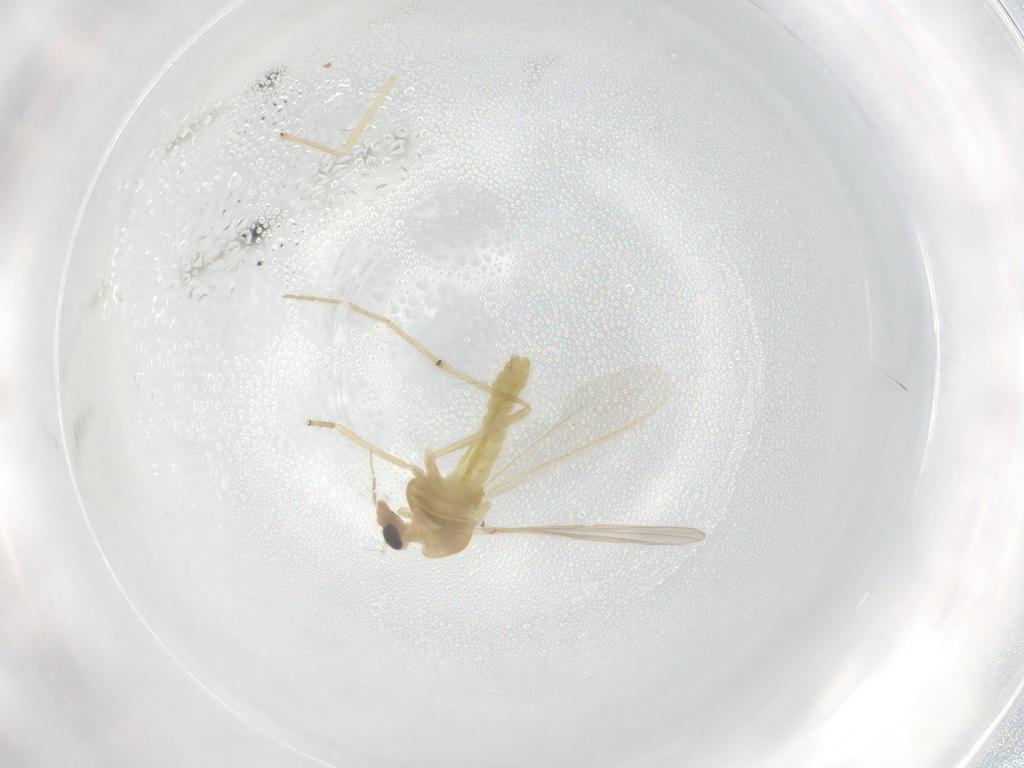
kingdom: Animalia
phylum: Arthropoda
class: Insecta
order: Diptera
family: Chironomidae
